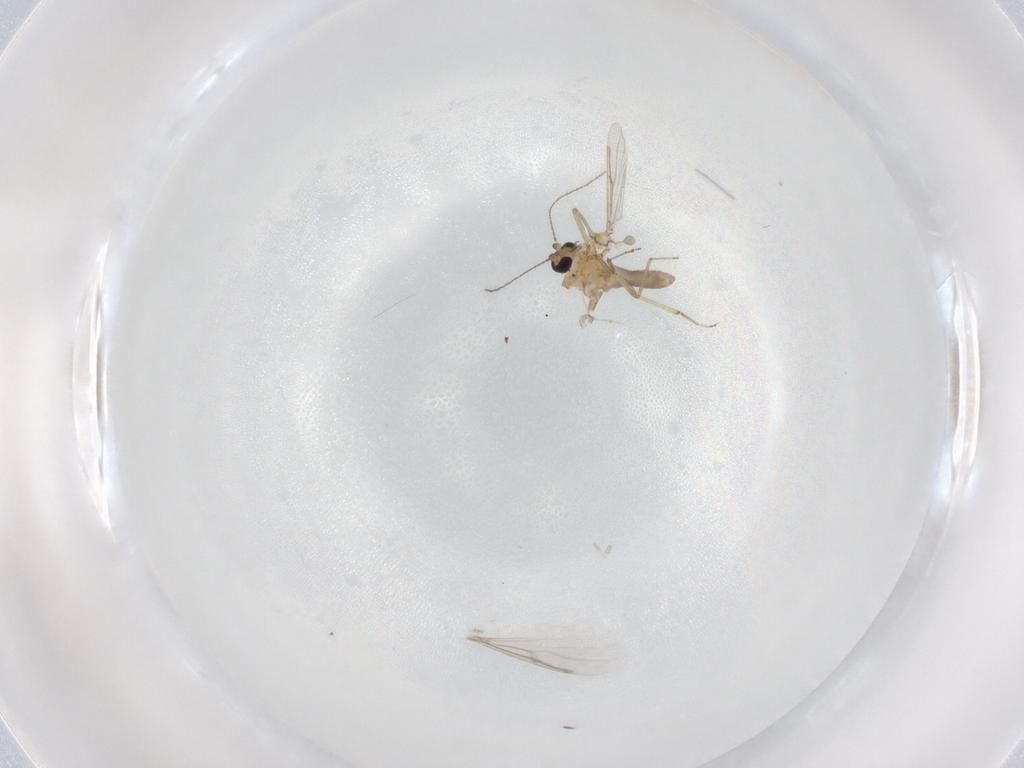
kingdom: Animalia
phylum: Arthropoda
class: Insecta
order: Diptera
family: Ceratopogonidae
